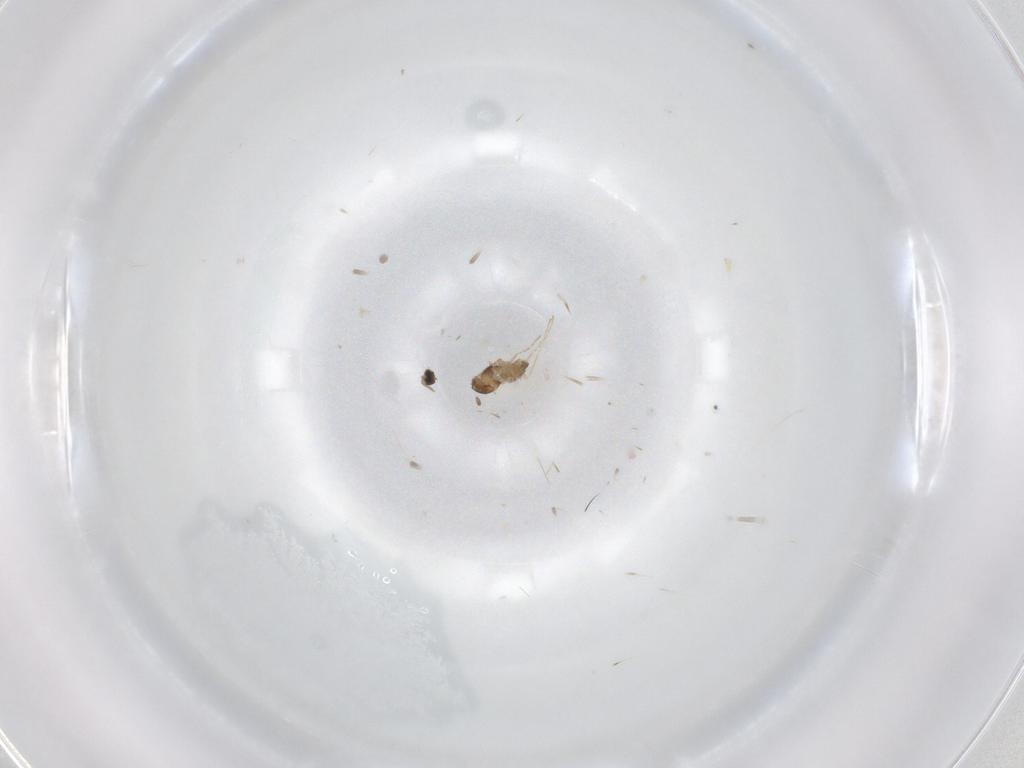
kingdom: Animalia
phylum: Arthropoda
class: Insecta
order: Diptera
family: Cecidomyiidae
